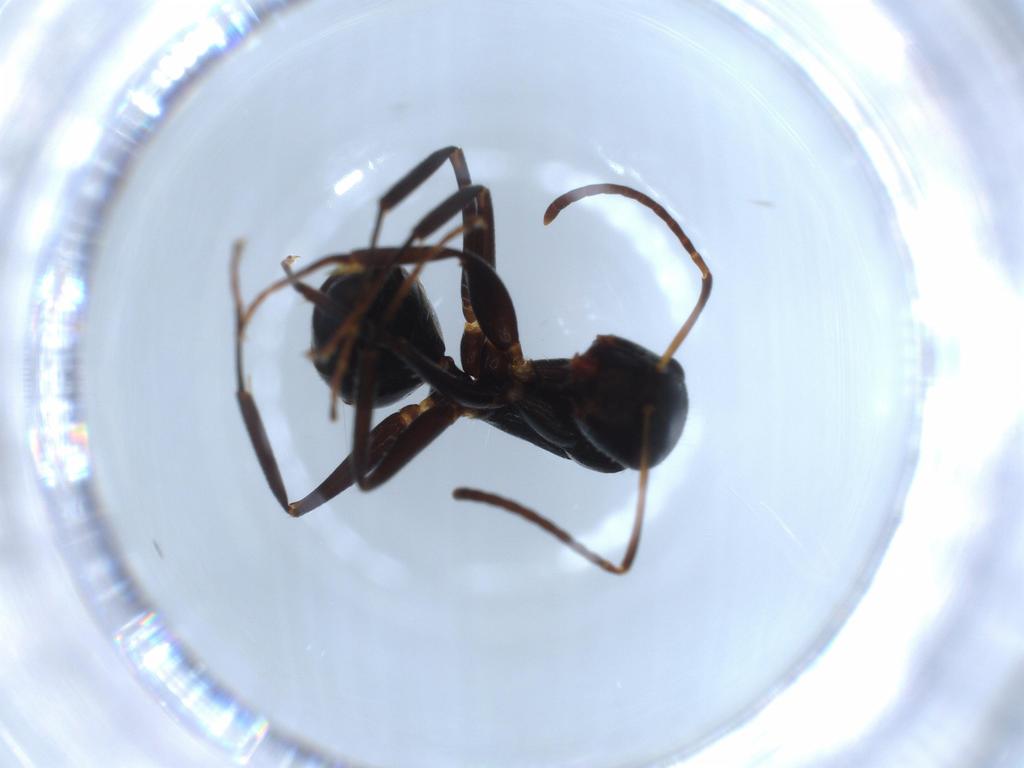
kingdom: Animalia
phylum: Arthropoda
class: Insecta
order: Hymenoptera
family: Formicidae
